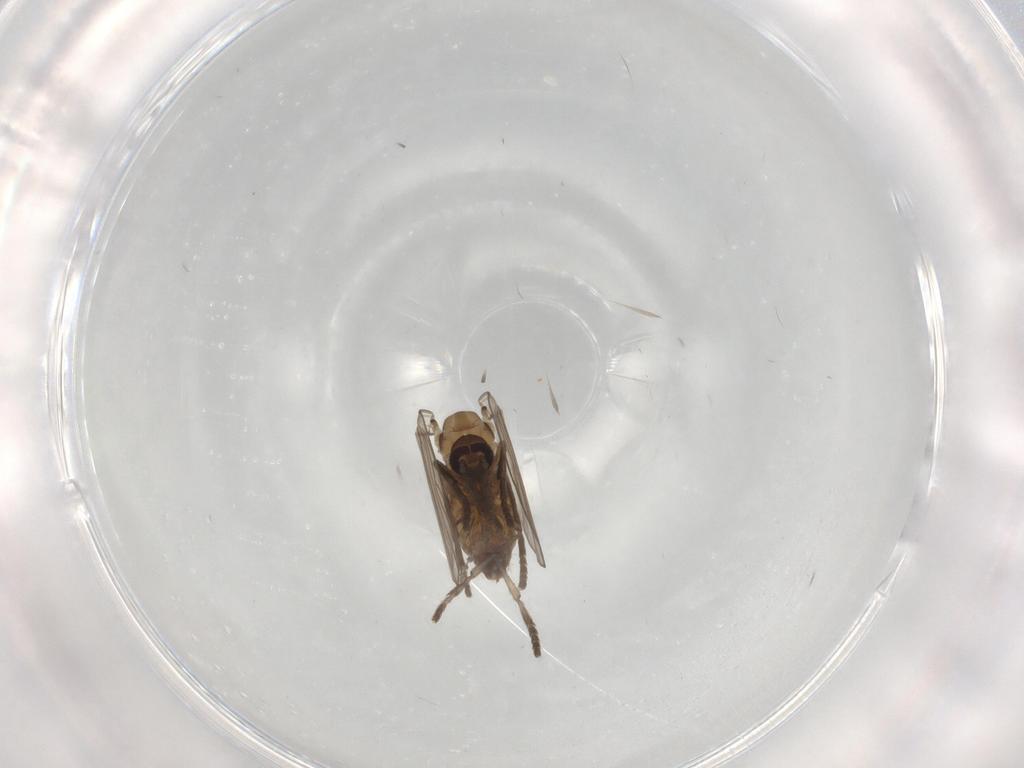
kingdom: Animalia
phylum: Arthropoda
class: Insecta
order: Diptera
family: Psychodidae
